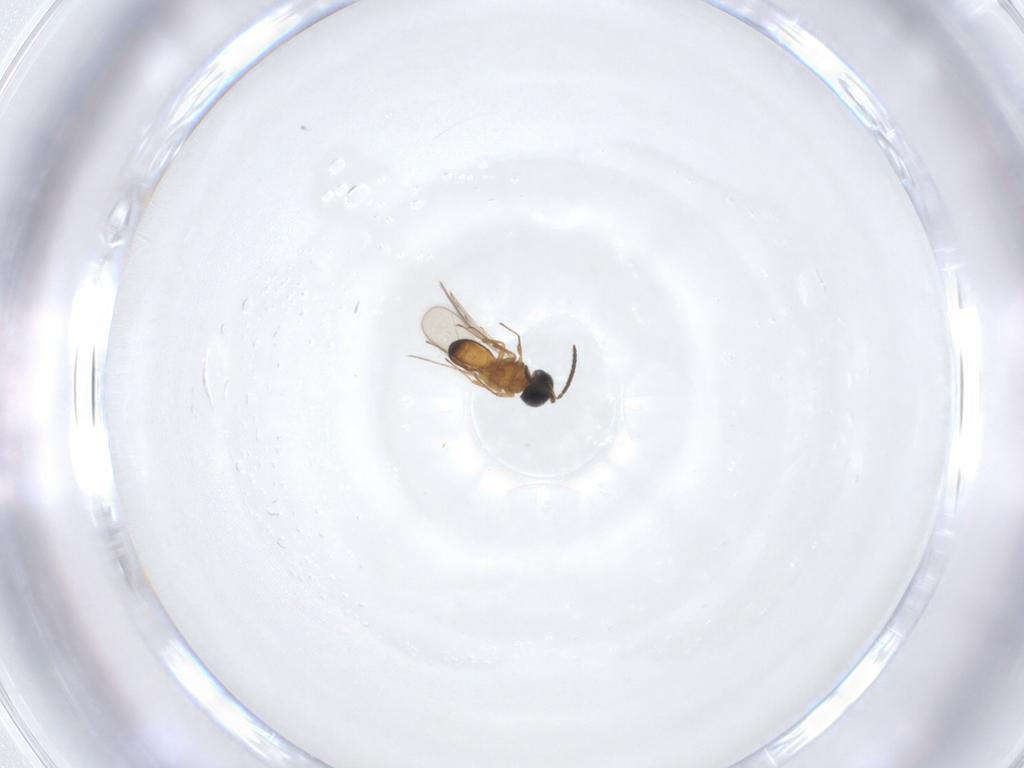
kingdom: Animalia
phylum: Arthropoda
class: Insecta
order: Hymenoptera
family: Scelionidae
